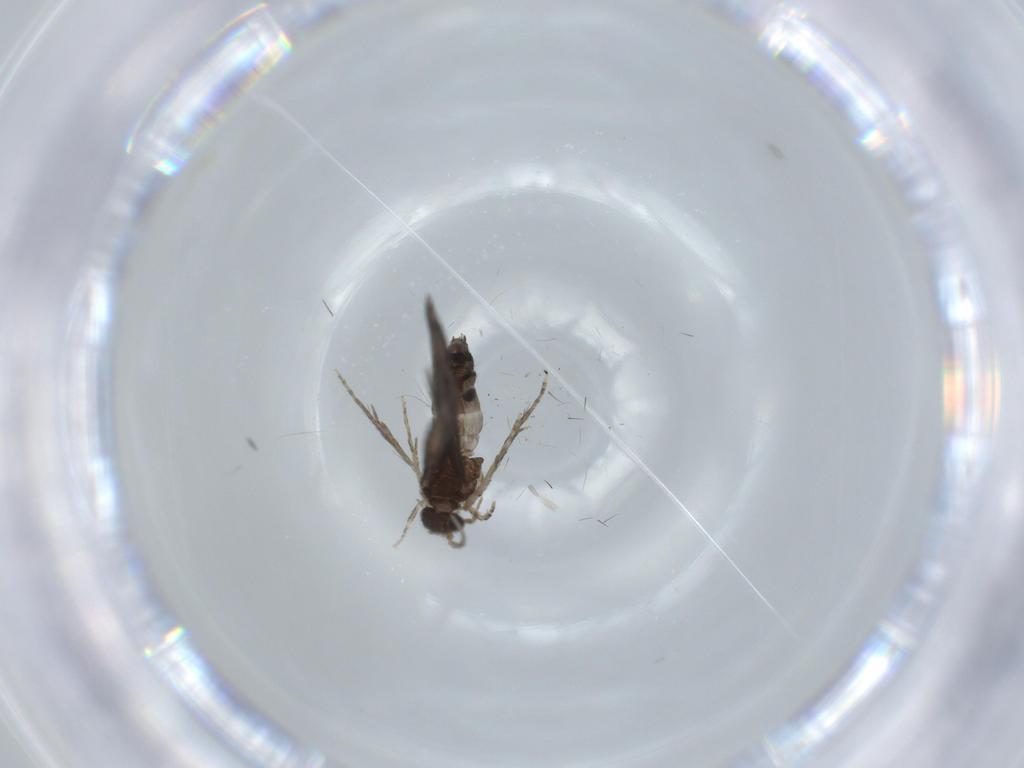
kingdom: Animalia
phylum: Arthropoda
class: Insecta
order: Trichoptera
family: Hydroptilidae
